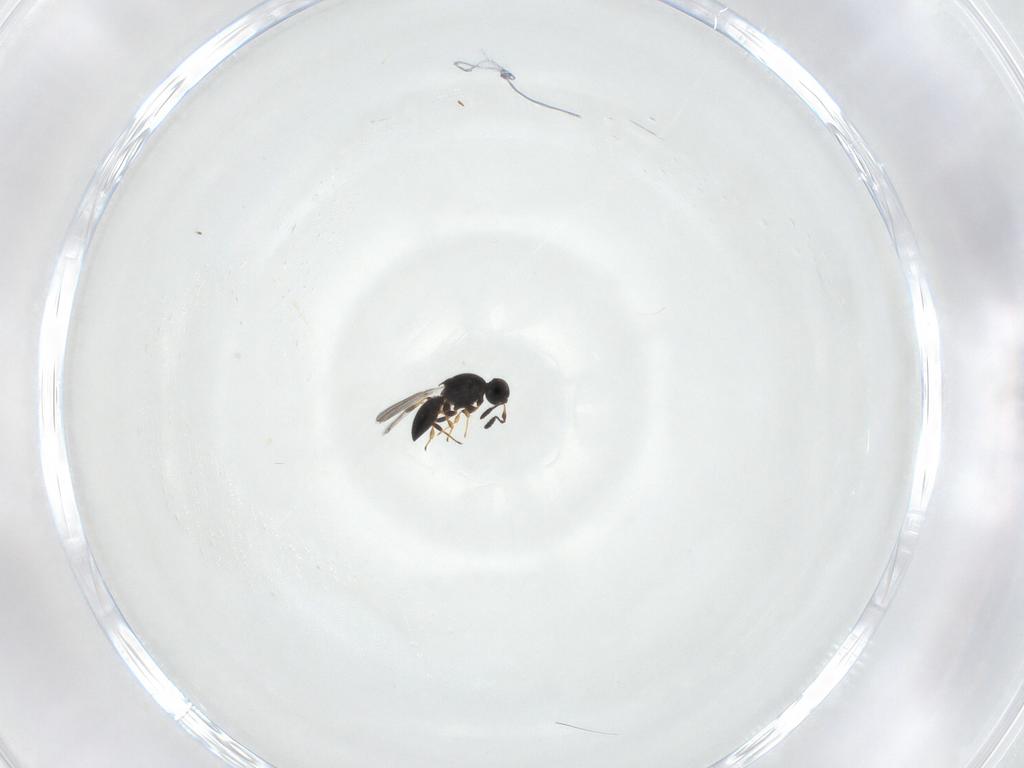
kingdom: Animalia
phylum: Arthropoda
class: Insecta
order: Hymenoptera
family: Platygastridae
